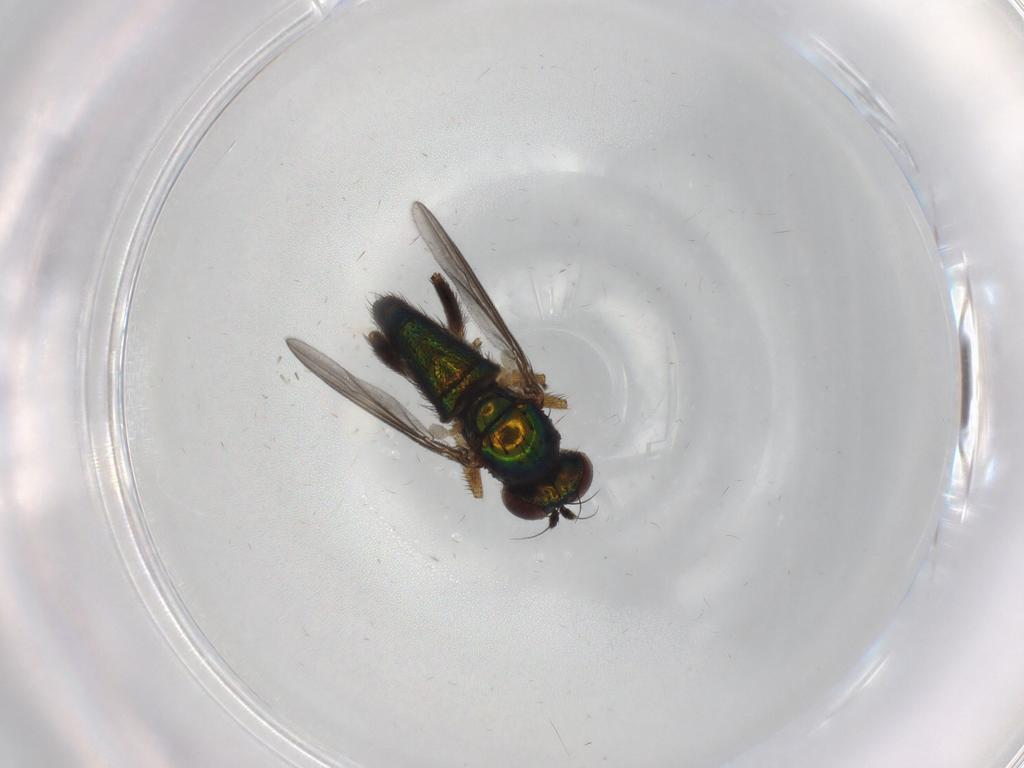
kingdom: Animalia
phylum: Arthropoda
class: Insecta
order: Diptera
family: Dolichopodidae
